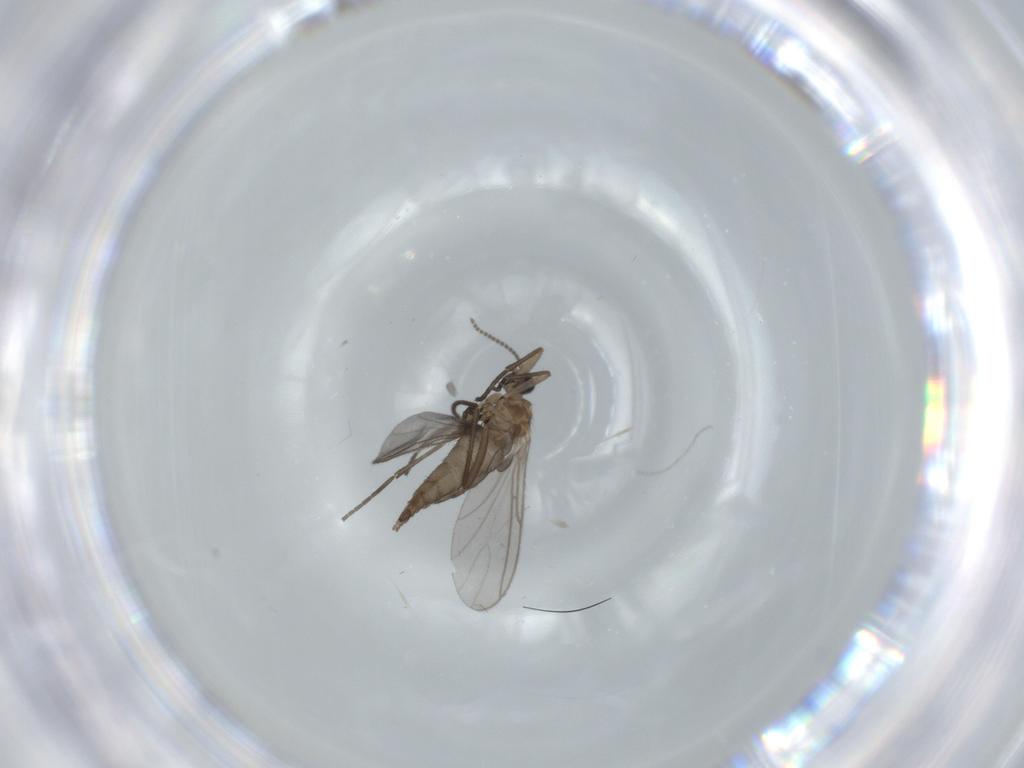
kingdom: Animalia
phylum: Arthropoda
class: Insecta
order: Diptera
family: Sciaridae
